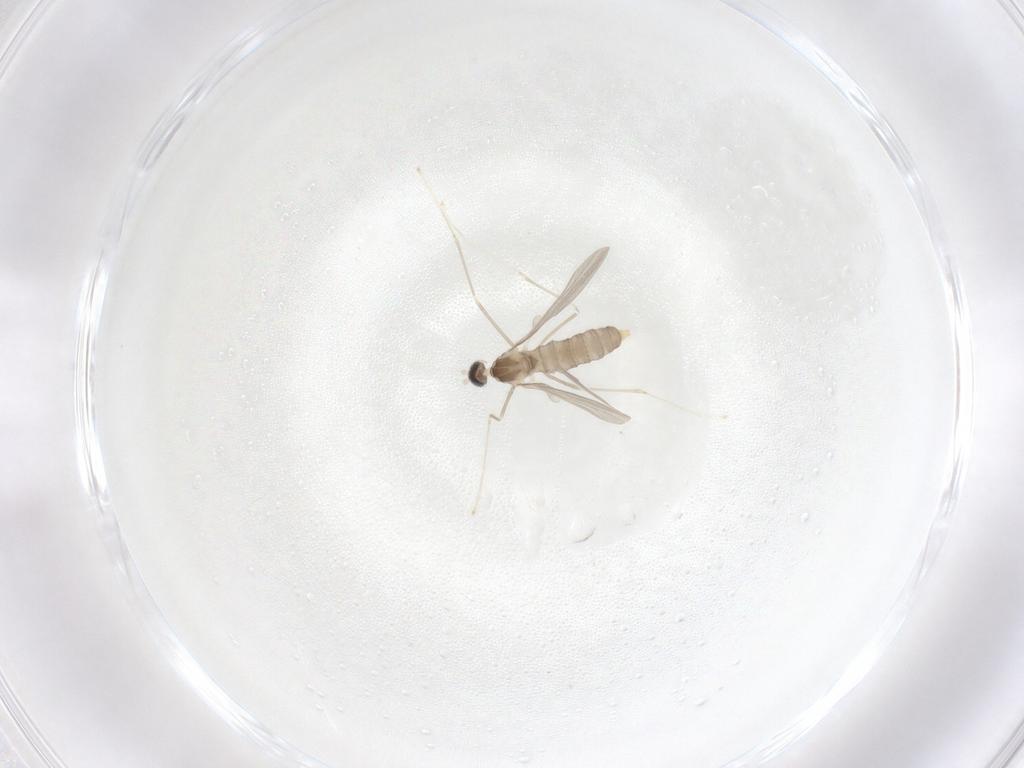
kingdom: Animalia
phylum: Arthropoda
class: Insecta
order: Diptera
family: Cecidomyiidae
